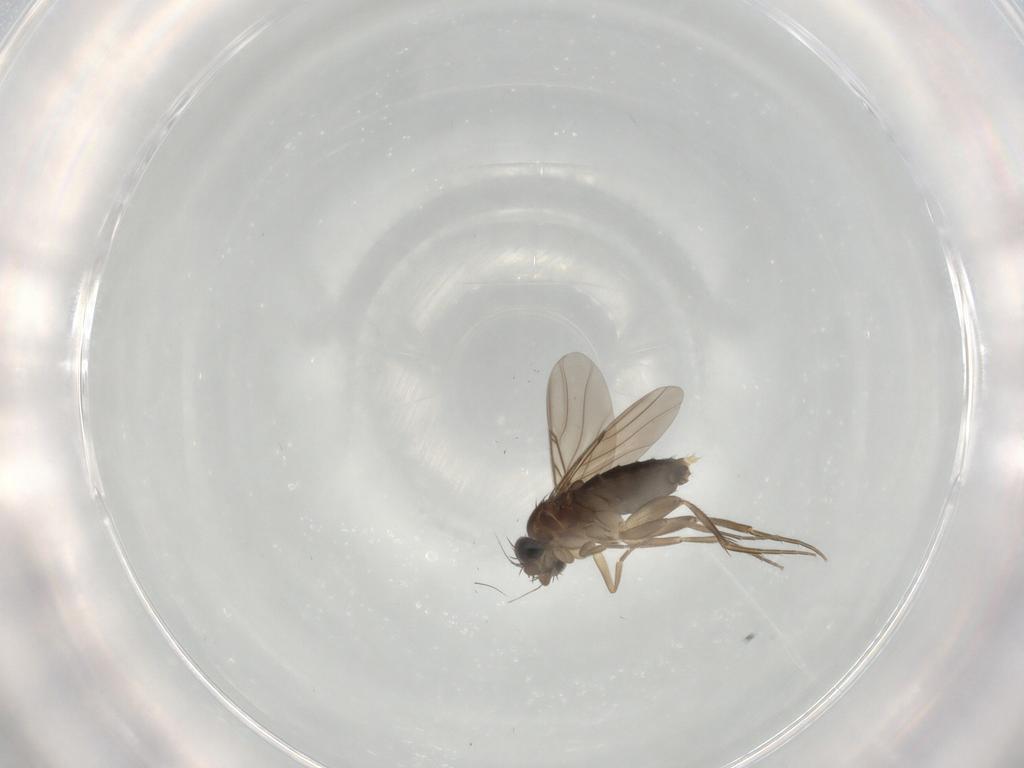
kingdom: Animalia
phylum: Arthropoda
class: Insecta
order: Diptera
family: Phoridae
